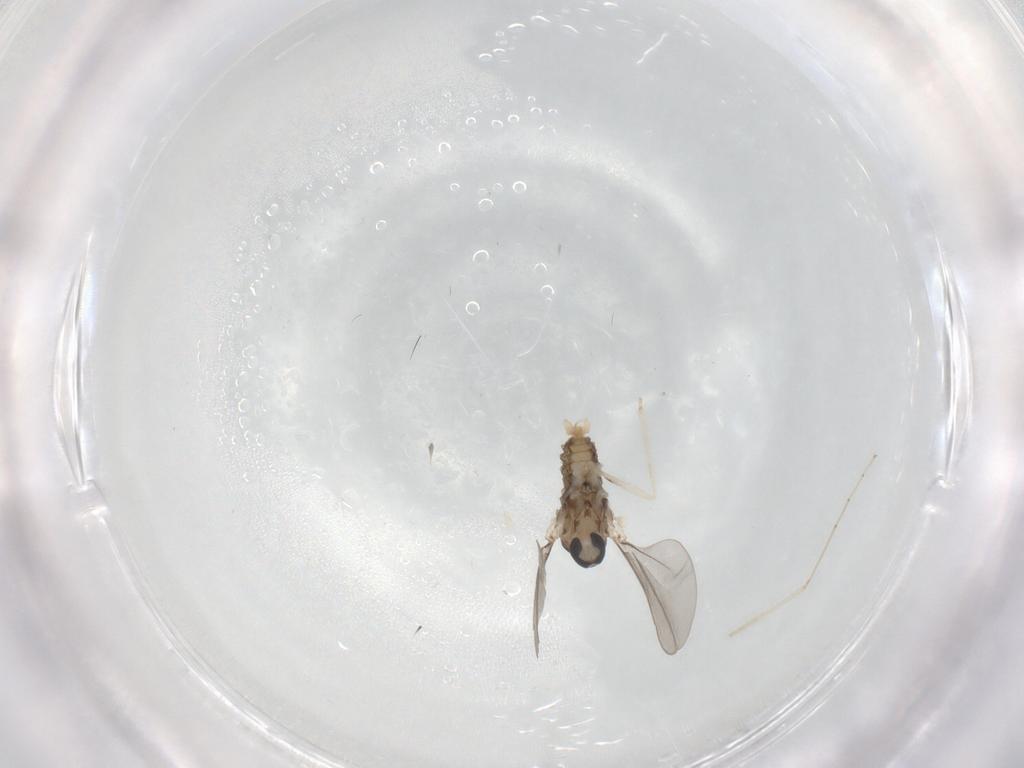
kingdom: Animalia
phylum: Arthropoda
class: Insecta
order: Diptera
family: Cecidomyiidae
